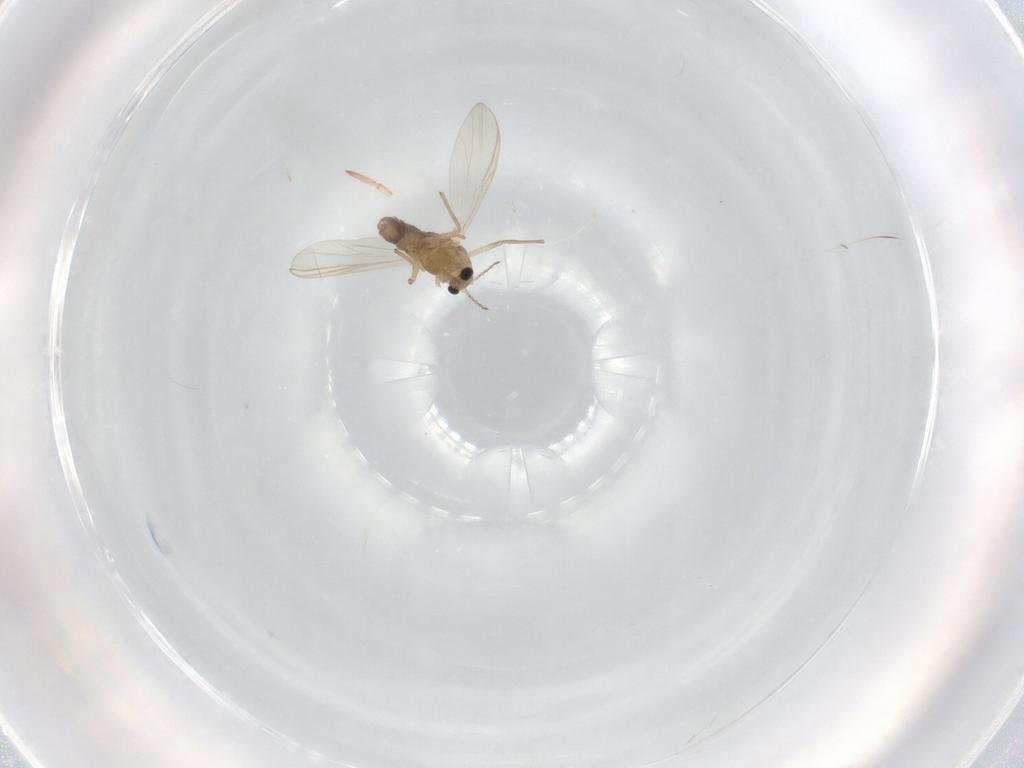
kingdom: Animalia
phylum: Arthropoda
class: Insecta
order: Diptera
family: Chironomidae
